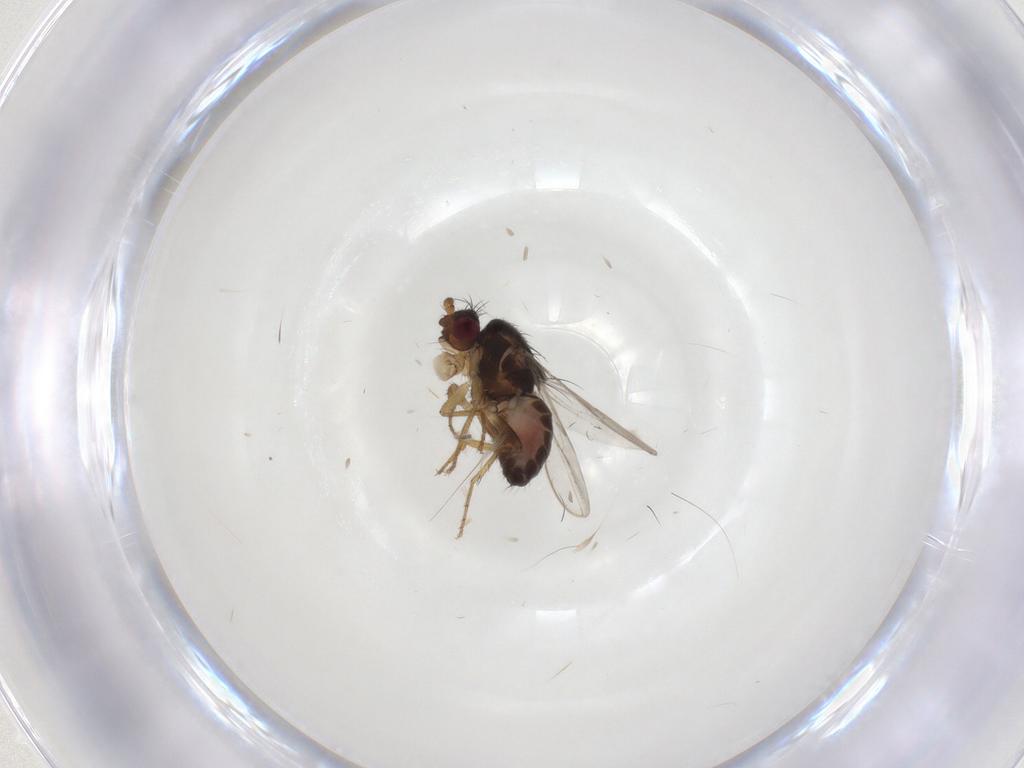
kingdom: Animalia
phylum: Arthropoda
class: Insecta
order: Diptera
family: Sphaeroceridae
